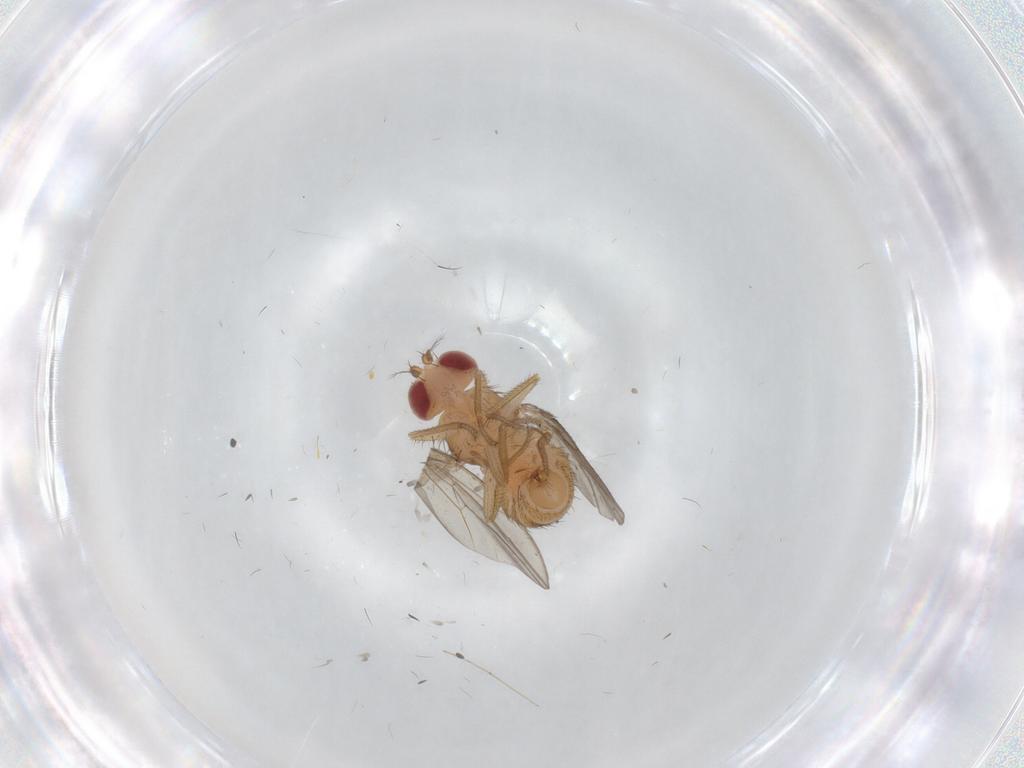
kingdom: Animalia
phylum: Arthropoda
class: Insecta
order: Diptera
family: Drosophilidae
